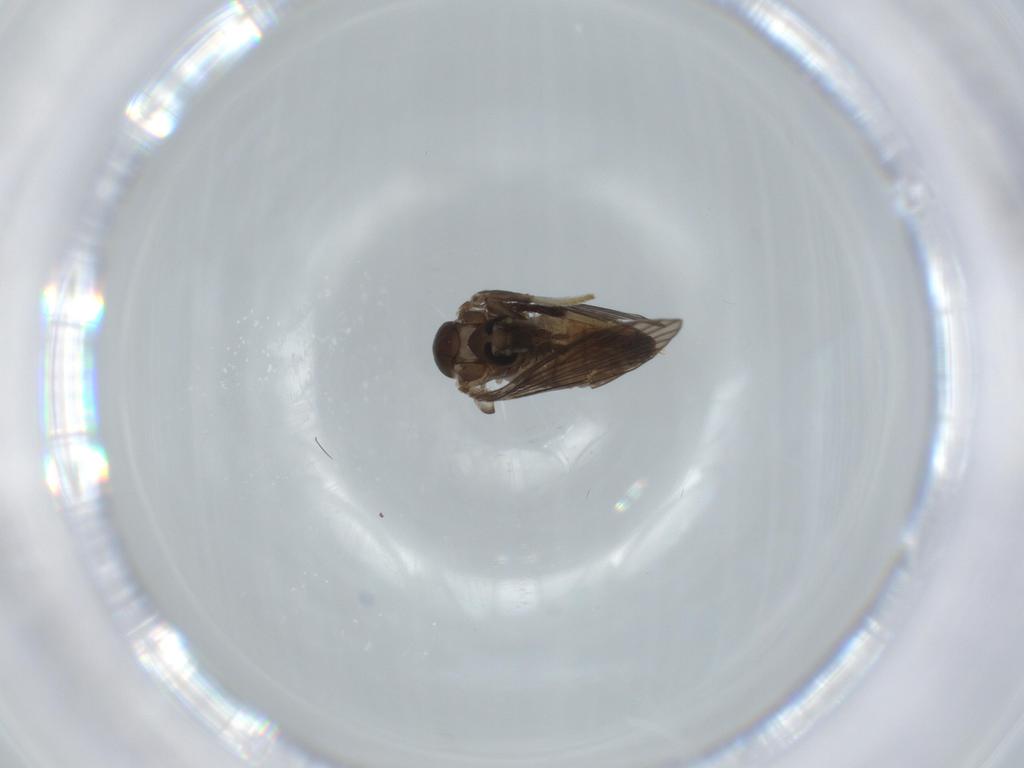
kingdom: Animalia
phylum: Arthropoda
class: Insecta
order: Diptera
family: Psychodidae
